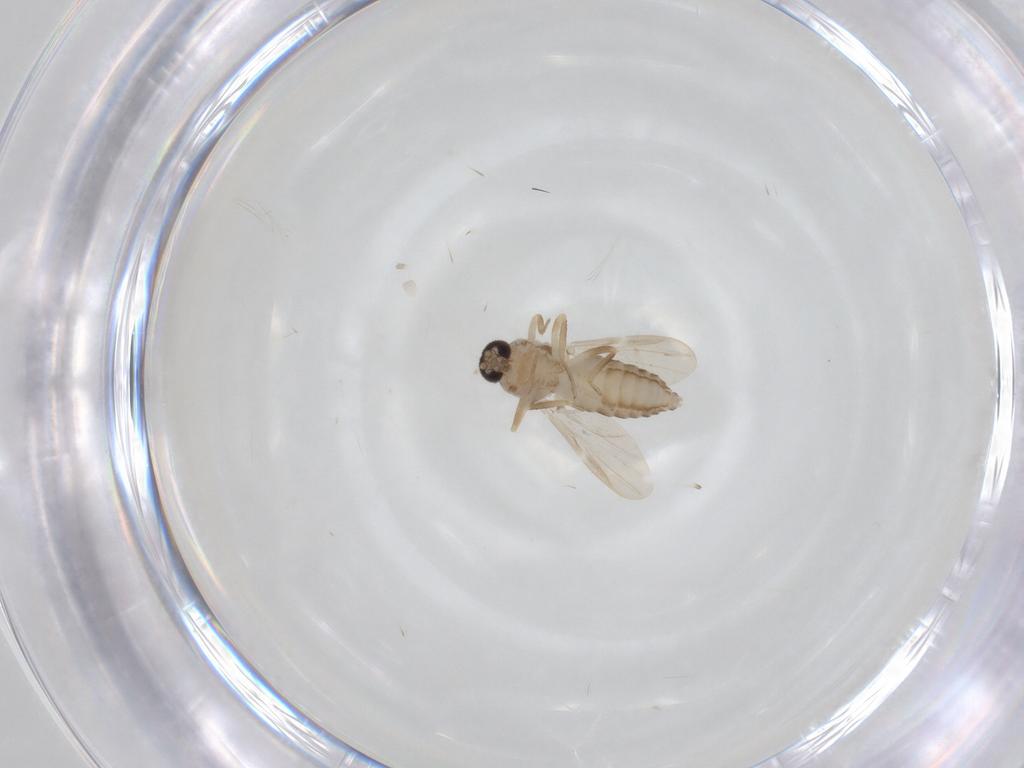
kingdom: Animalia
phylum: Arthropoda
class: Insecta
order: Diptera
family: Ceratopogonidae
